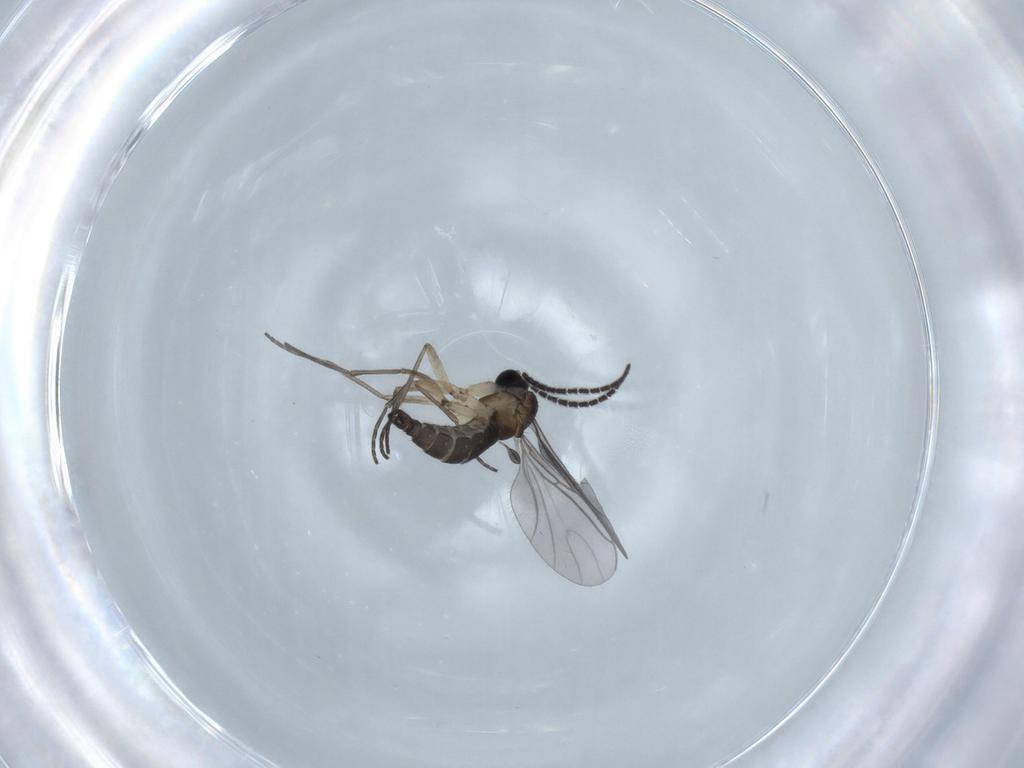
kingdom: Animalia
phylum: Arthropoda
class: Insecta
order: Diptera
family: Sciaridae
